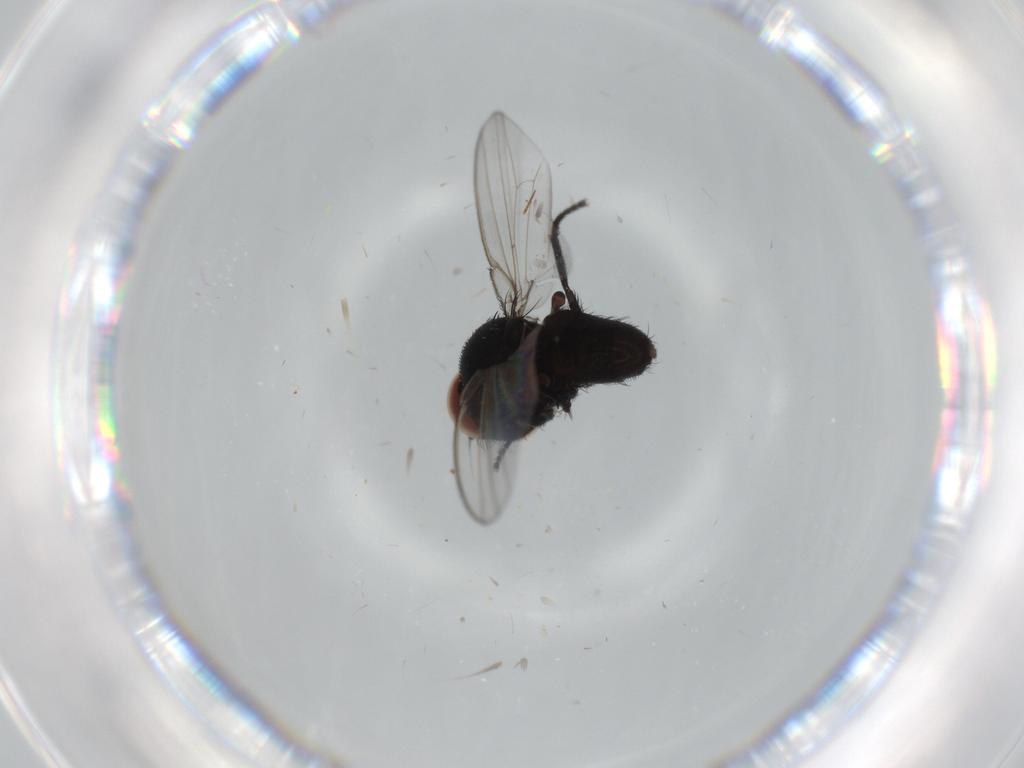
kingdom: Animalia
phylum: Arthropoda
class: Insecta
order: Diptera
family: Milichiidae
